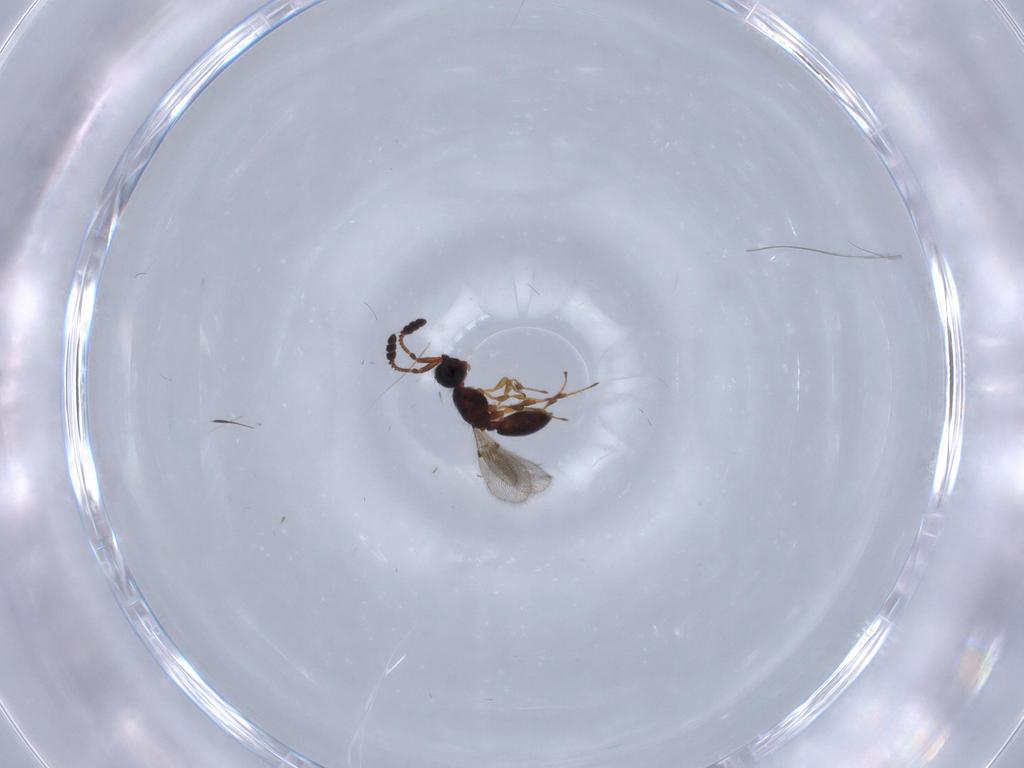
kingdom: Animalia
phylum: Arthropoda
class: Insecta
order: Hymenoptera
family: Diapriidae
